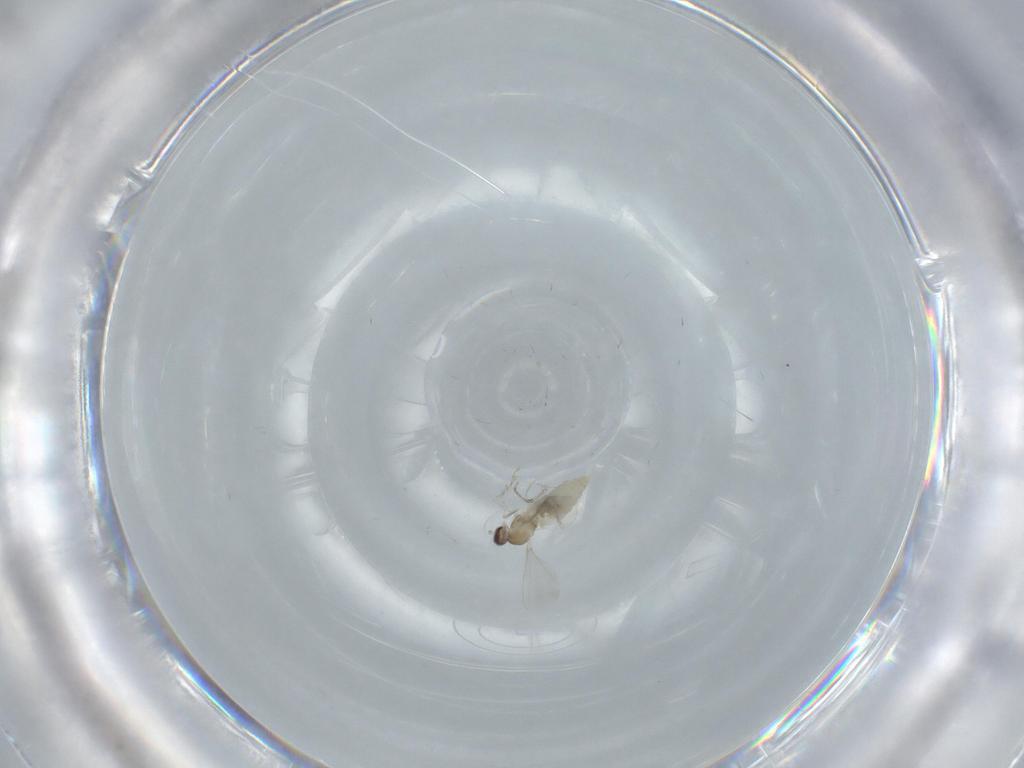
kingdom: Animalia
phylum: Arthropoda
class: Insecta
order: Diptera
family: Cecidomyiidae
